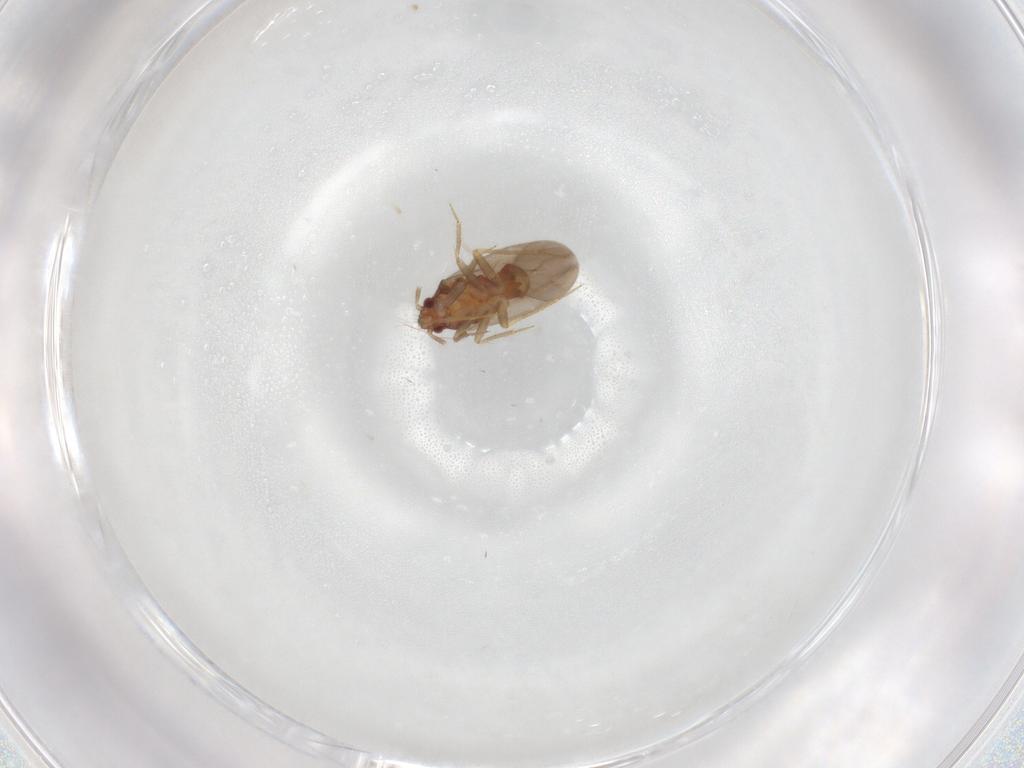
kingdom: Animalia
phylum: Arthropoda
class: Insecta
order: Hemiptera
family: Ceratocombidae
